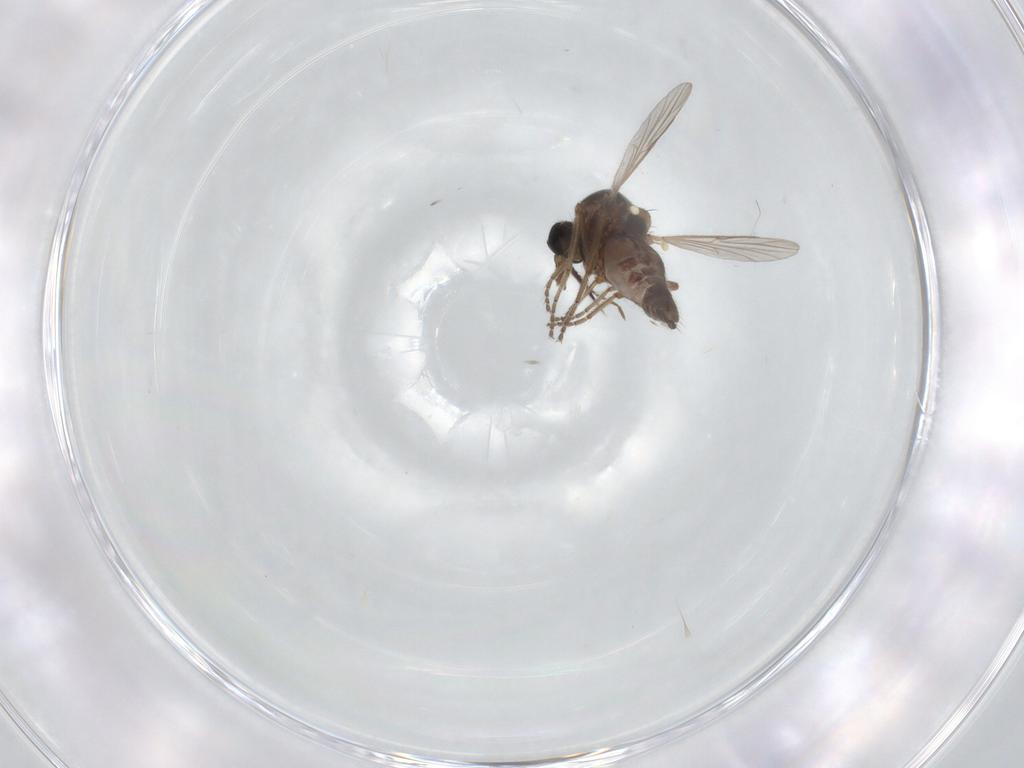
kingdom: Animalia
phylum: Arthropoda
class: Insecta
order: Diptera
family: Ceratopogonidae
